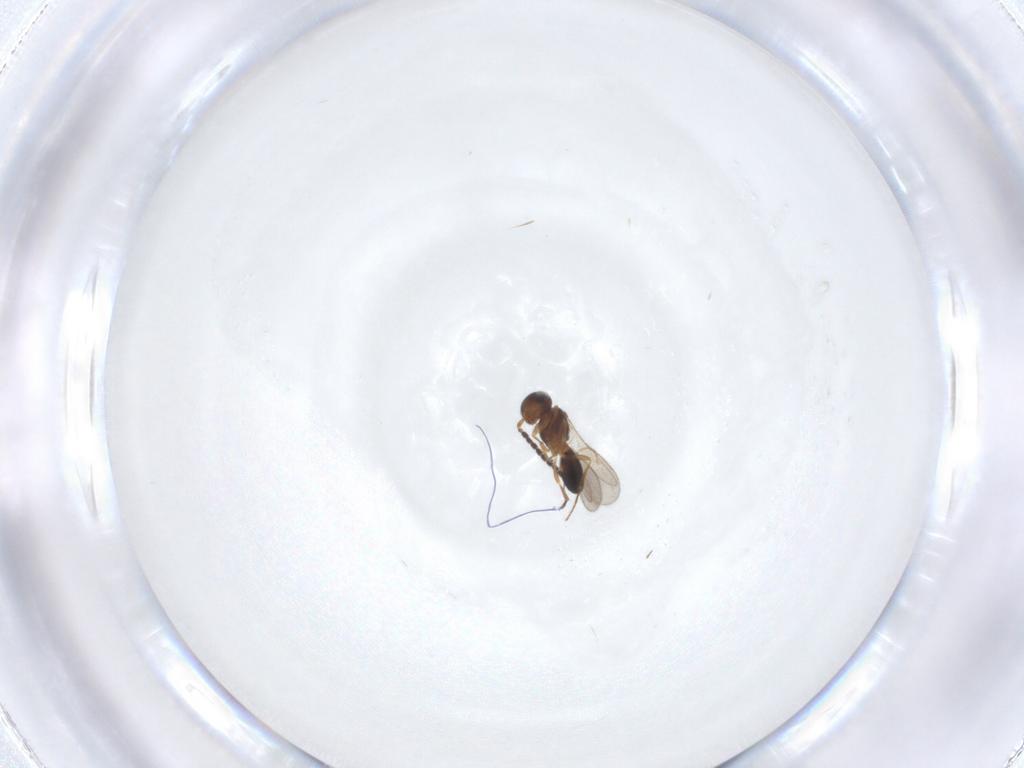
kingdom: Animalia
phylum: Arthropoda
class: Insecta
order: Hymenoptera
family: Scelionidae
